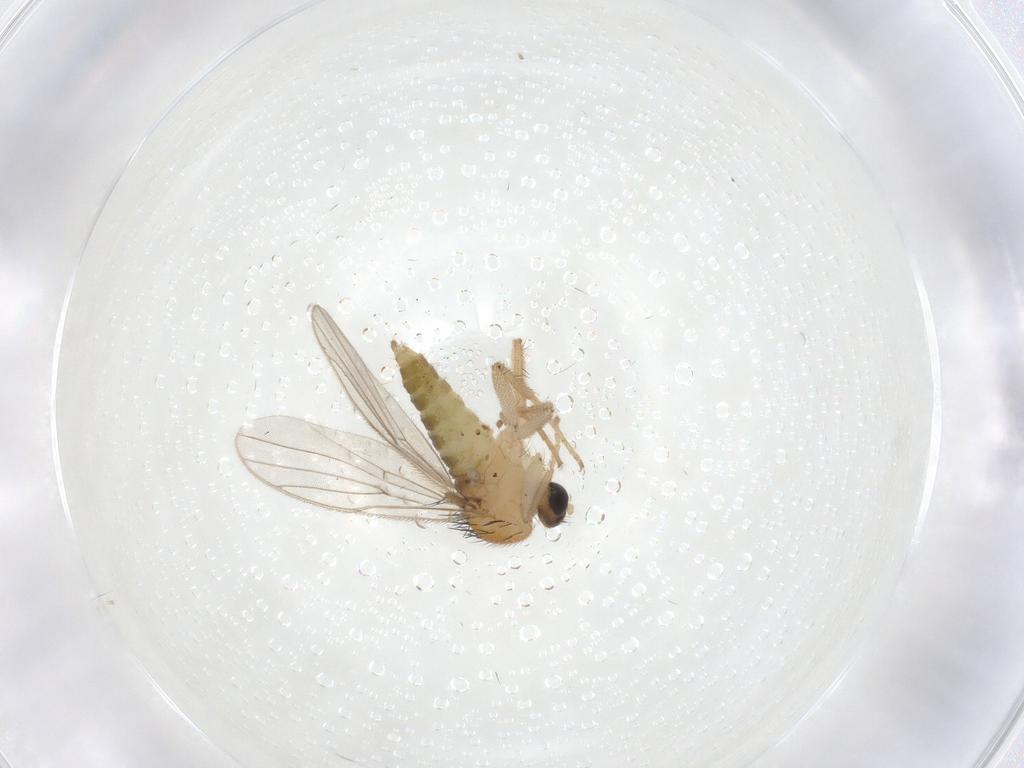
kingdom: Animalia
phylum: Arthropoda
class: Insecta
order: Diptera
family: Hybotidae
